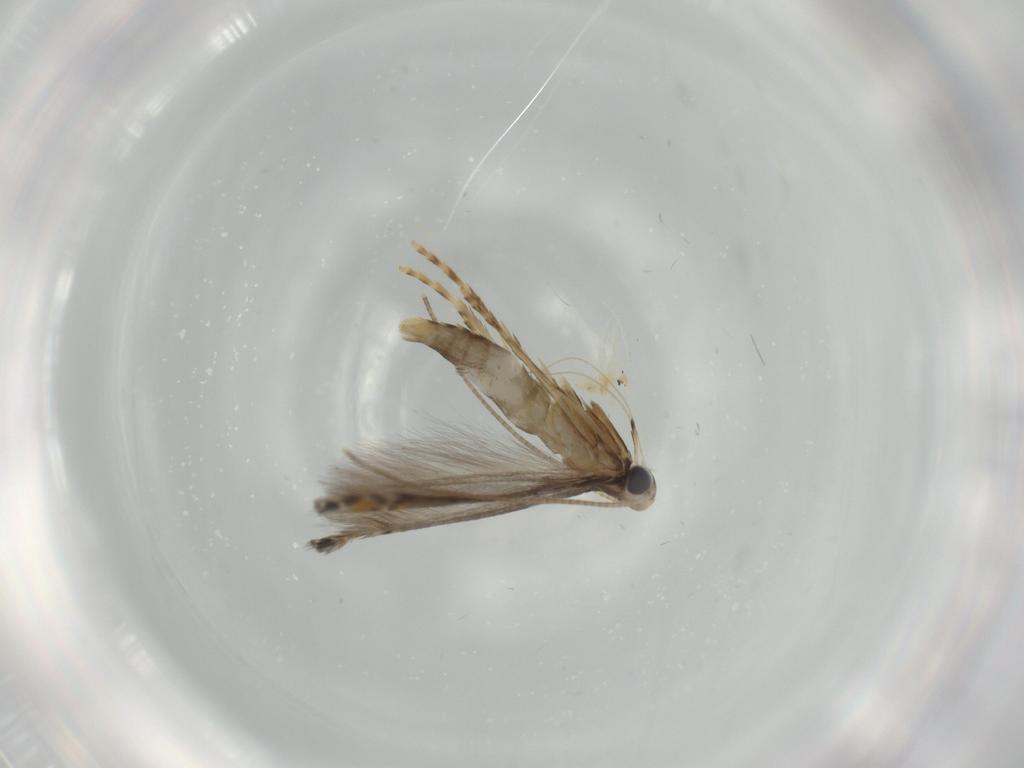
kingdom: Animalia
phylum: Arthropoda
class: Insecta
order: Lepidoptera
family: Gracillariidae
